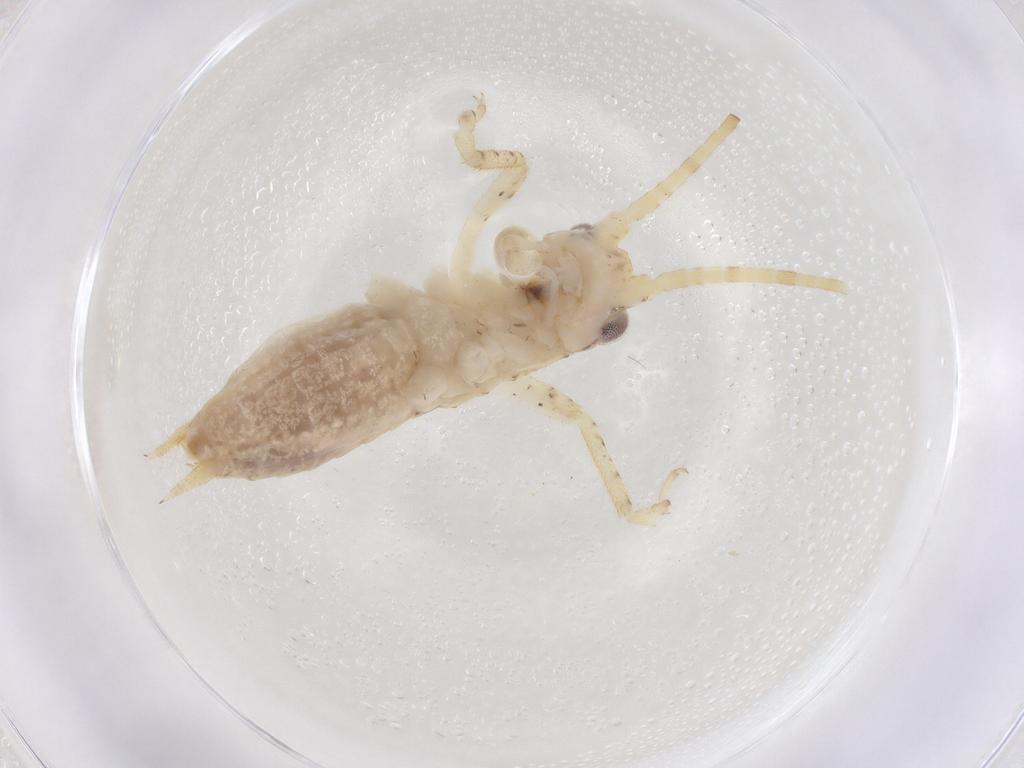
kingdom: Animalia
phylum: Arthropoda
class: Insecta
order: Orthoptera
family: Gryllidae
